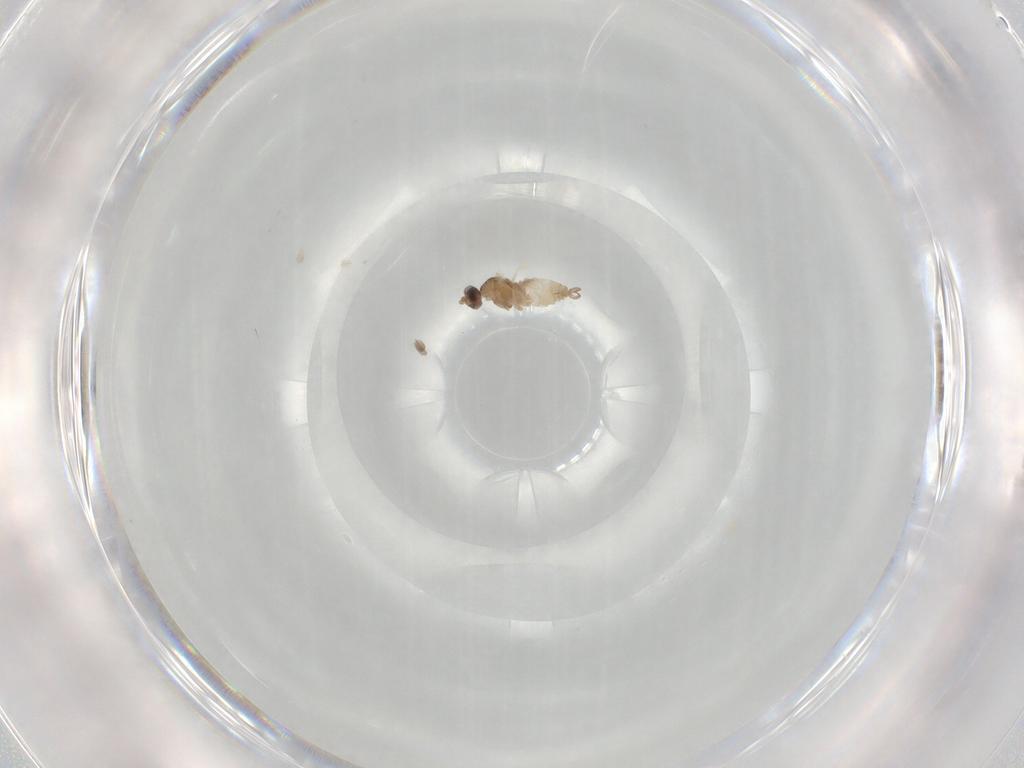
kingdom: Animalia
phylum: Arthropoda
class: Insecta
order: Diptera
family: Cecidomyiidae
